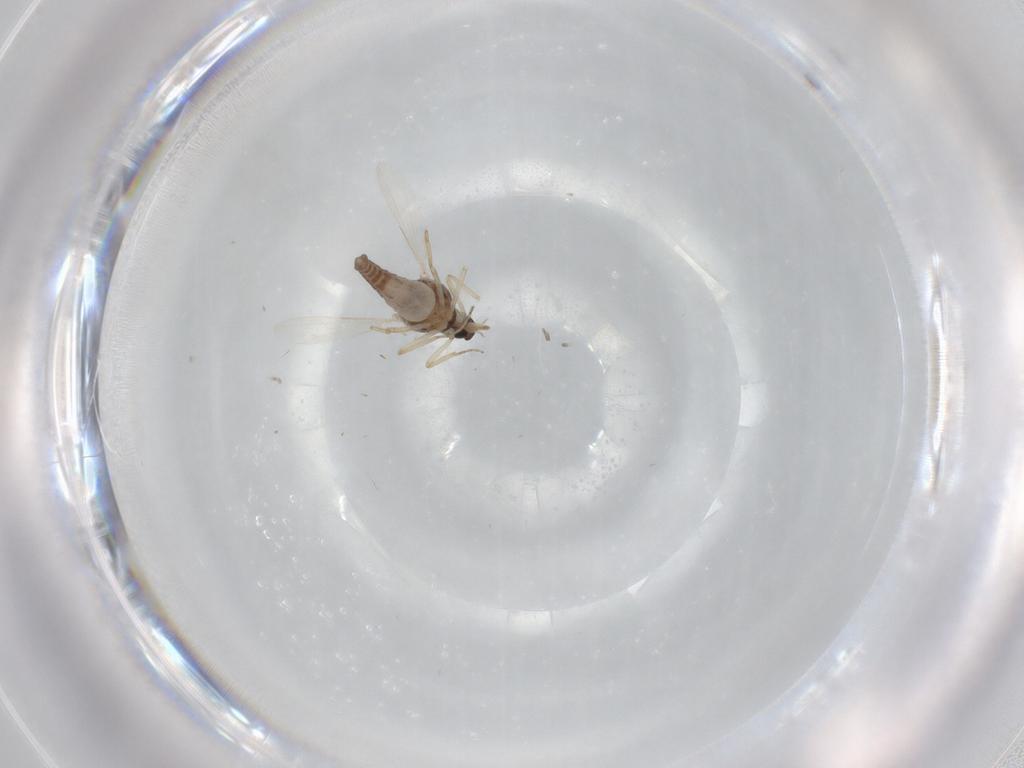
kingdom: Animalia
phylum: Arthropoda
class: Insecta
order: Diptera
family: Ceratopogonidae
